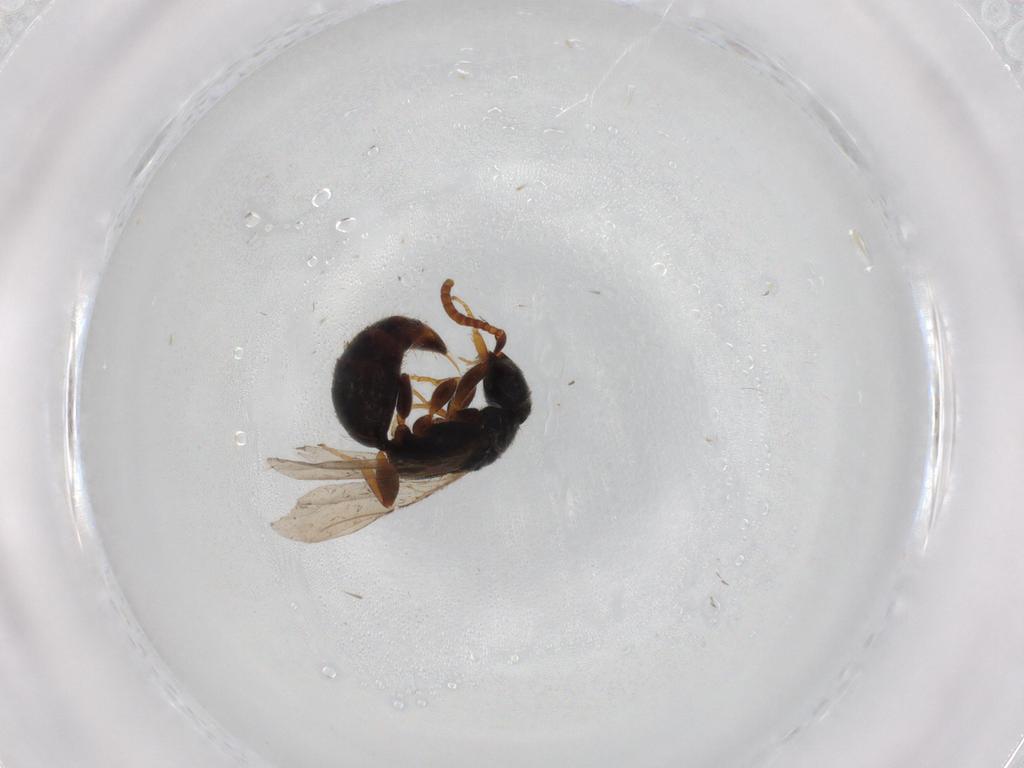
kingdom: Animalia
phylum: Arthropoda
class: Insecta
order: Hymenoptera
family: Bethylidae
